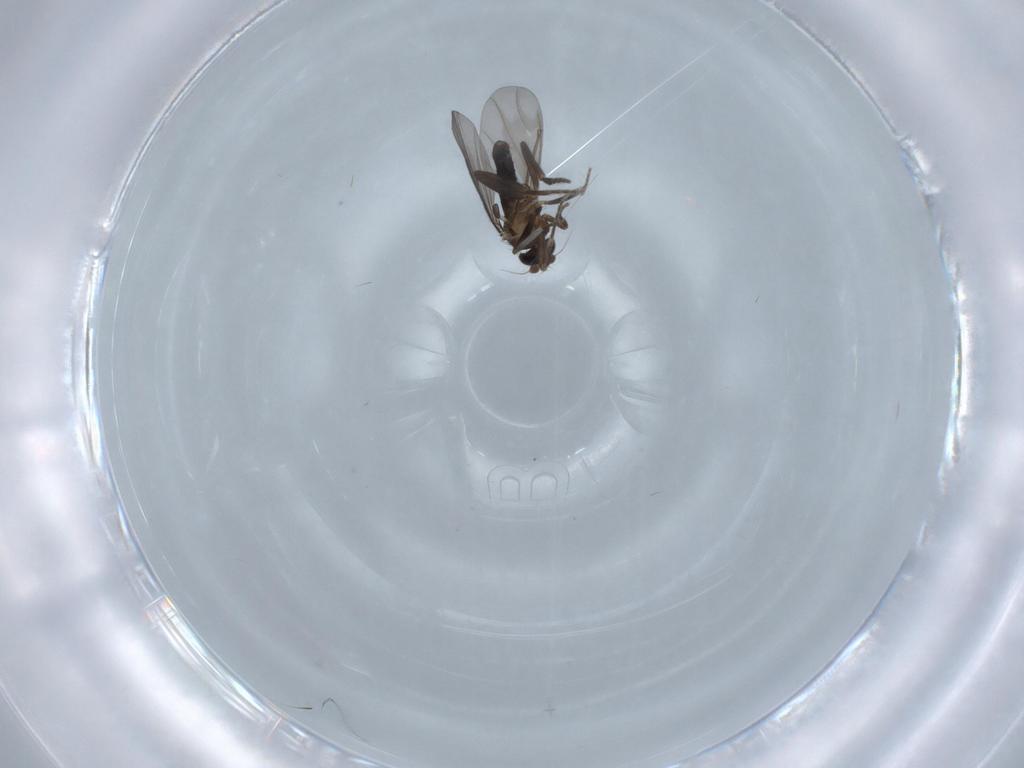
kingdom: Animalia
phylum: Arthropoda
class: Insecta
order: Diptera
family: Bibionidae
